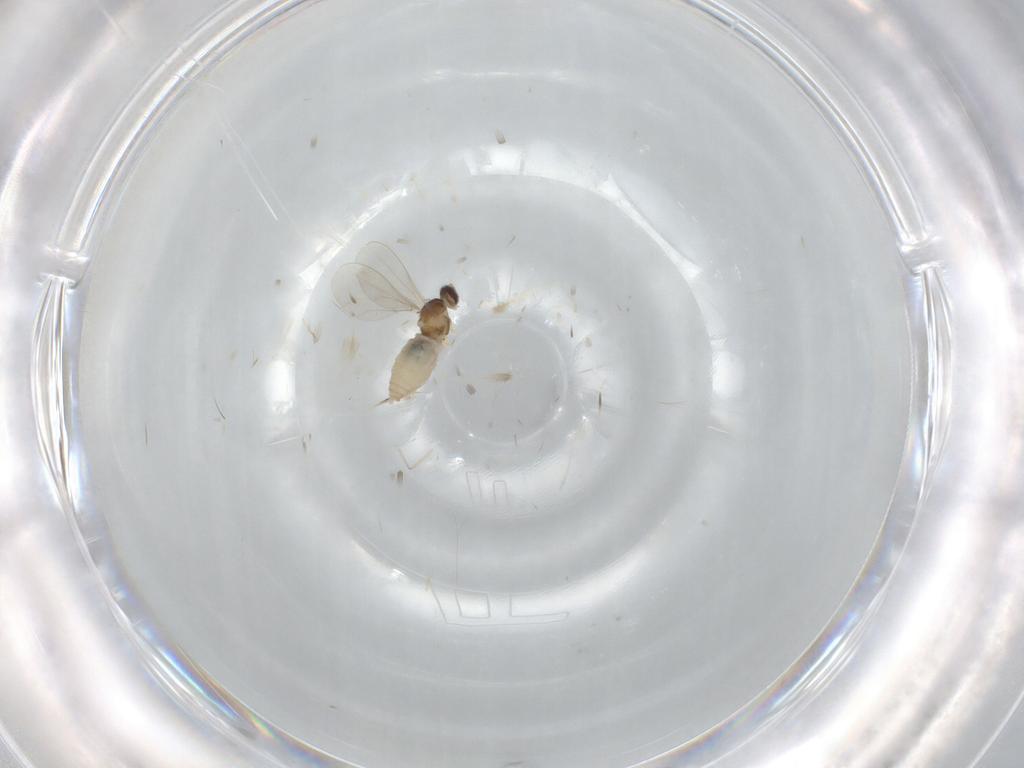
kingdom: Animalia
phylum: Arthropoda
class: Insecta
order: Diptera
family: Cecidomyiidae
